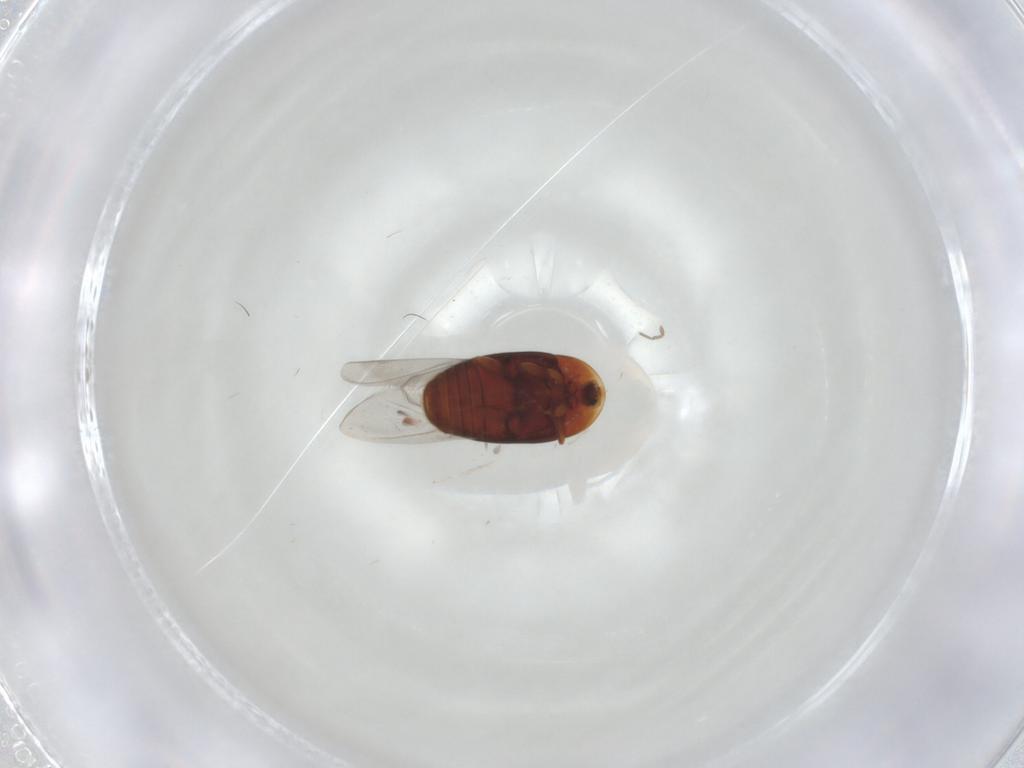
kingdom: Animalia
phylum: Arthropoda
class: Insecta
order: Coleoptera
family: Corylophidae
